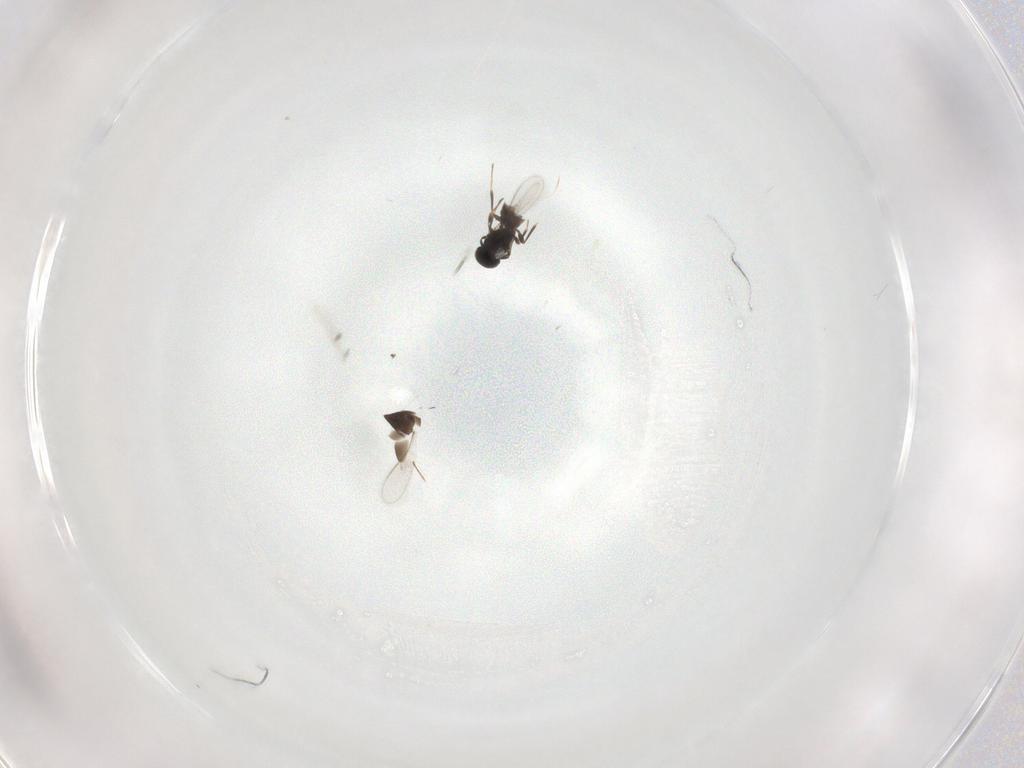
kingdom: Animalia
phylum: Arthropoda
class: Insecta
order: Hymenoptera
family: Scelionidae
